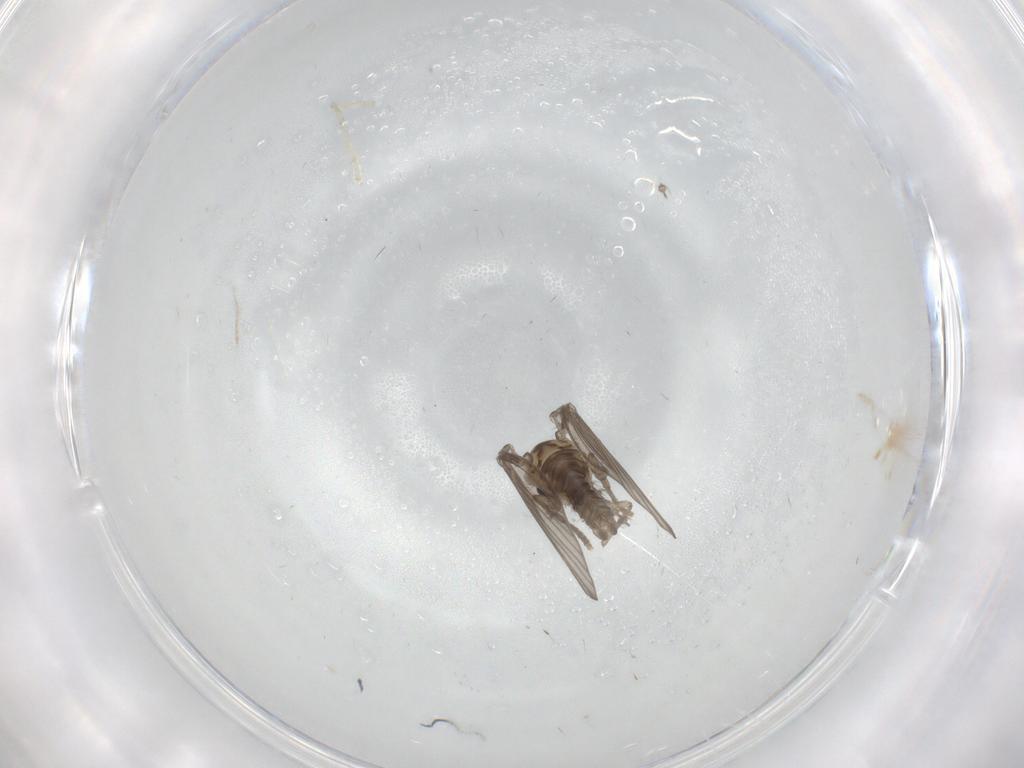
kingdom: Animalia
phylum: Arthropoda
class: Insecta
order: Diptera
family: Psychodidae
